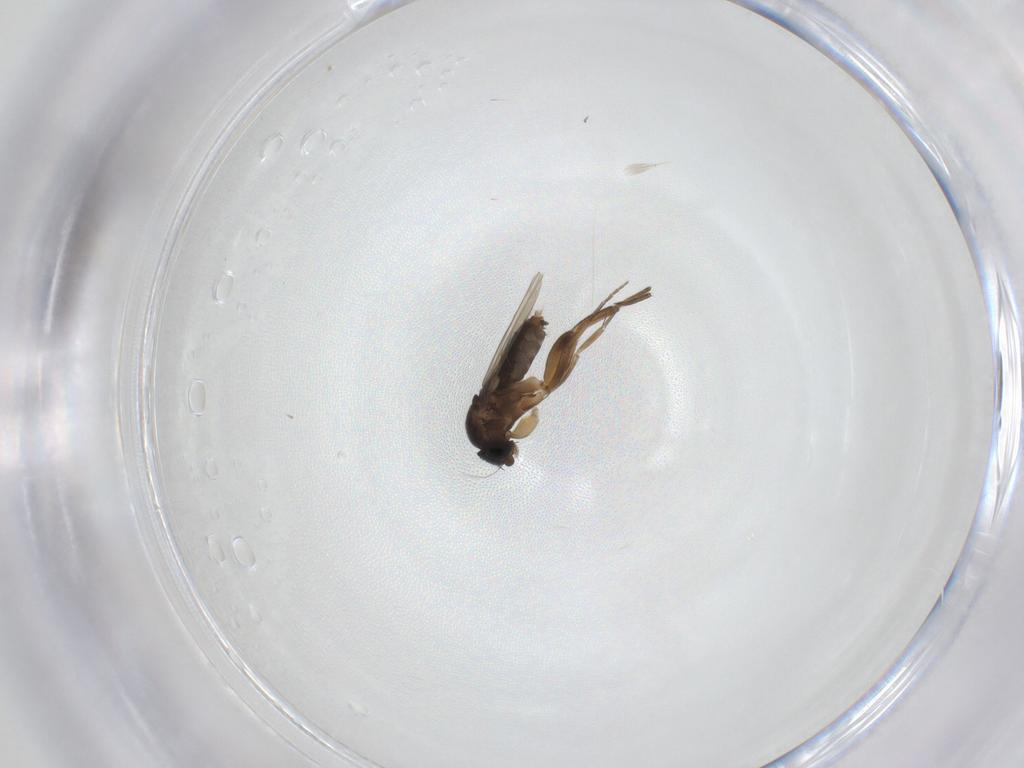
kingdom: Animalia
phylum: Arthropoda
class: Insecta
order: Diptera
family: Phoridae
